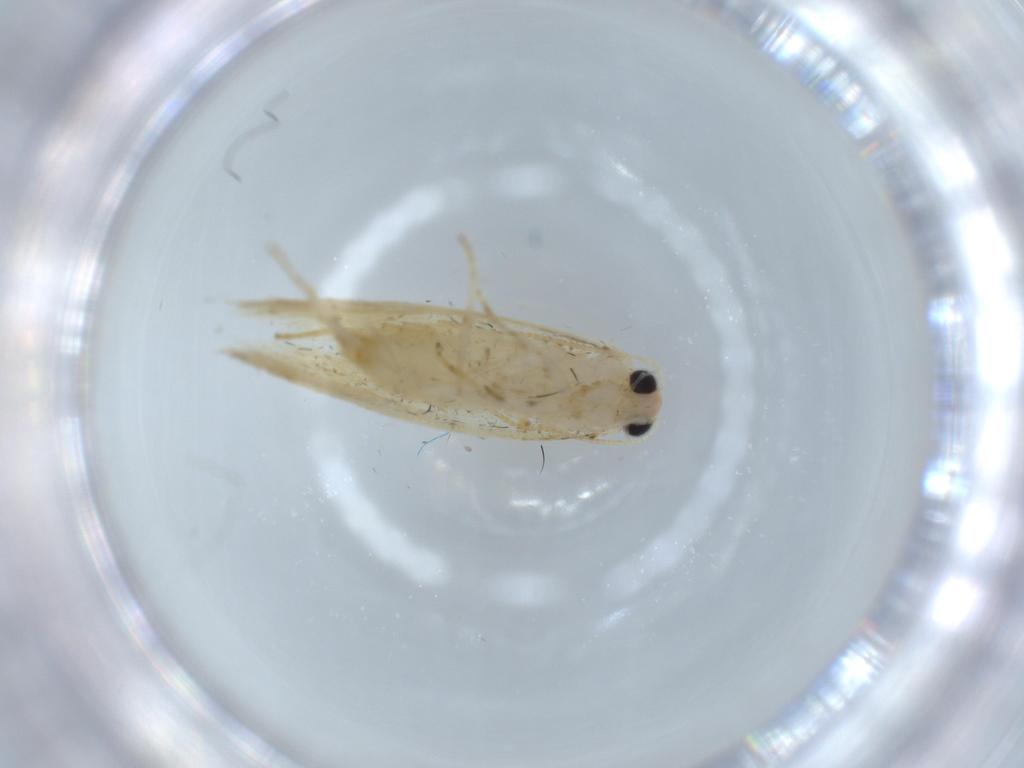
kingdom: Animalia
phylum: Arthropoda
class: Insecta
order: Lepidoptera
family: Tineidae
